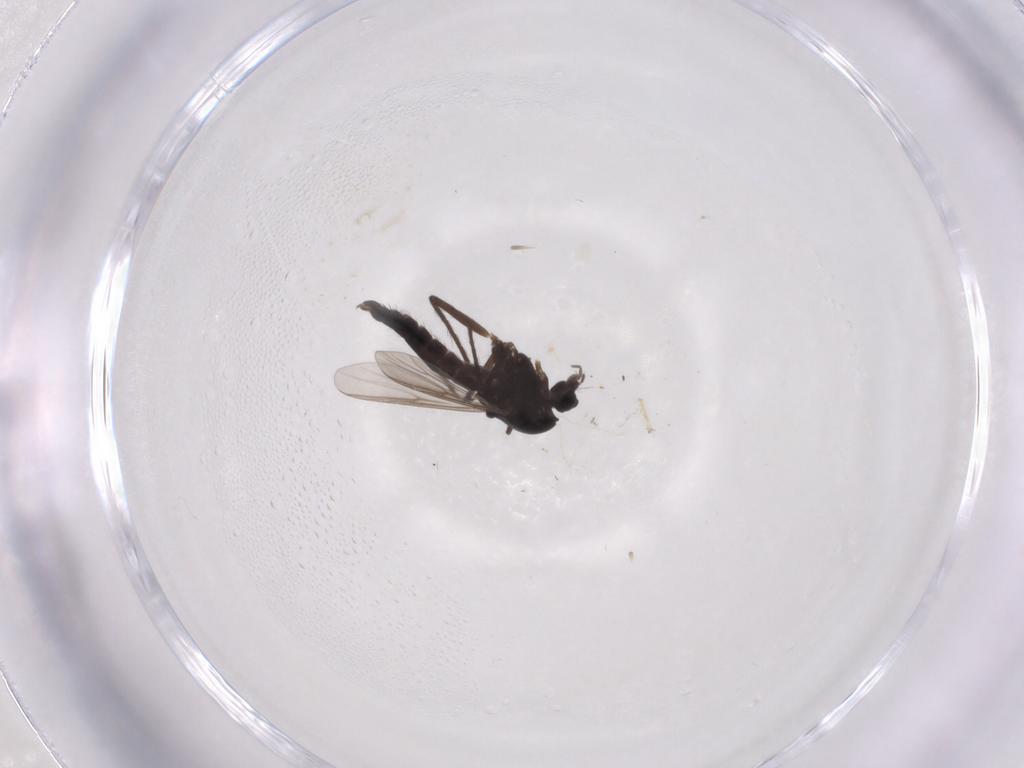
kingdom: Animalia
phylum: Arthropoda
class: Insecta
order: Diptera
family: Chironomidae
